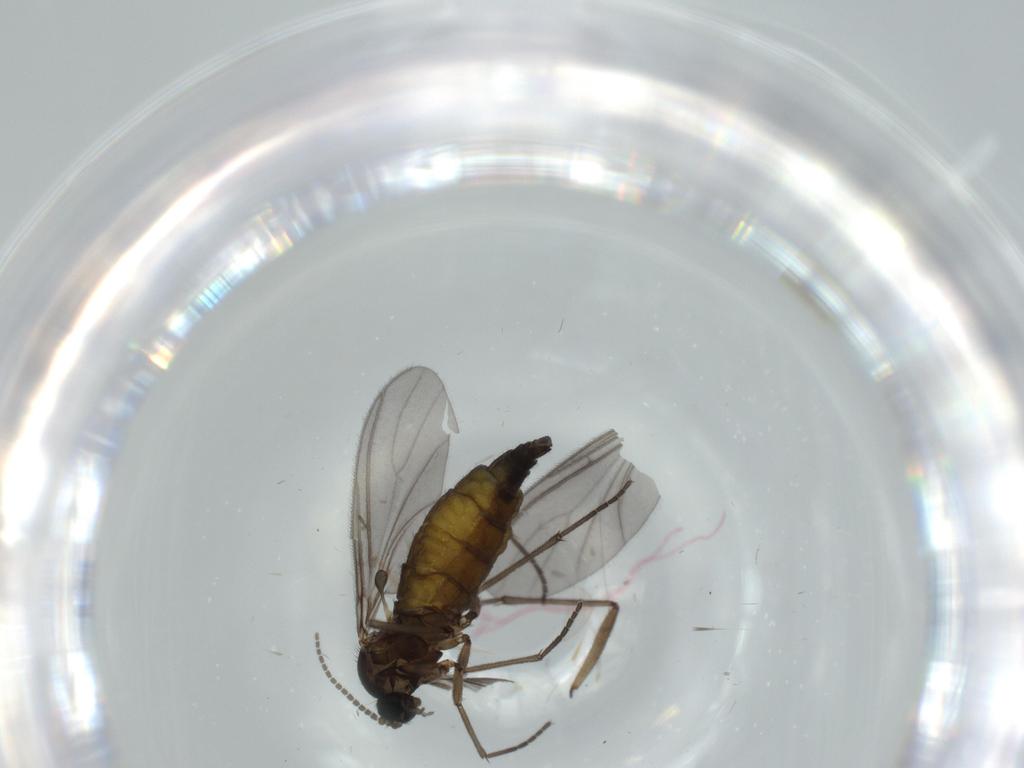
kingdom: Animalia
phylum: Arthropoda
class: Insecta
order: Diptera
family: Sciaridae
